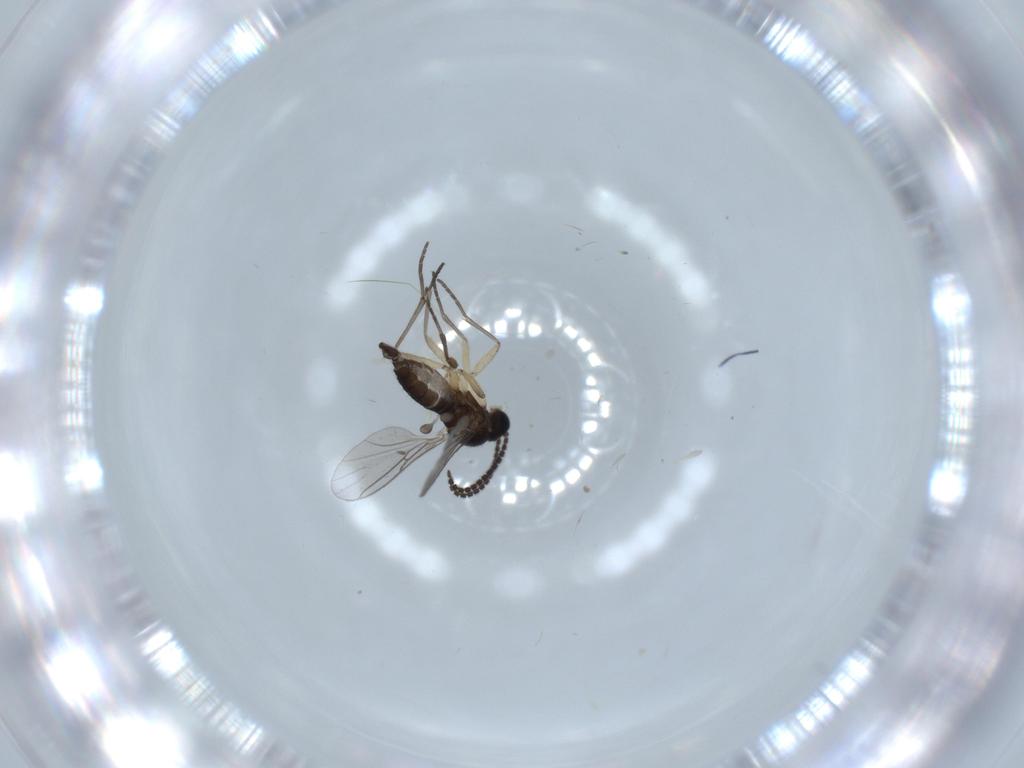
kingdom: Animalia
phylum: Arthropoda
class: Insecta
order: Diptera
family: Sciaridae
